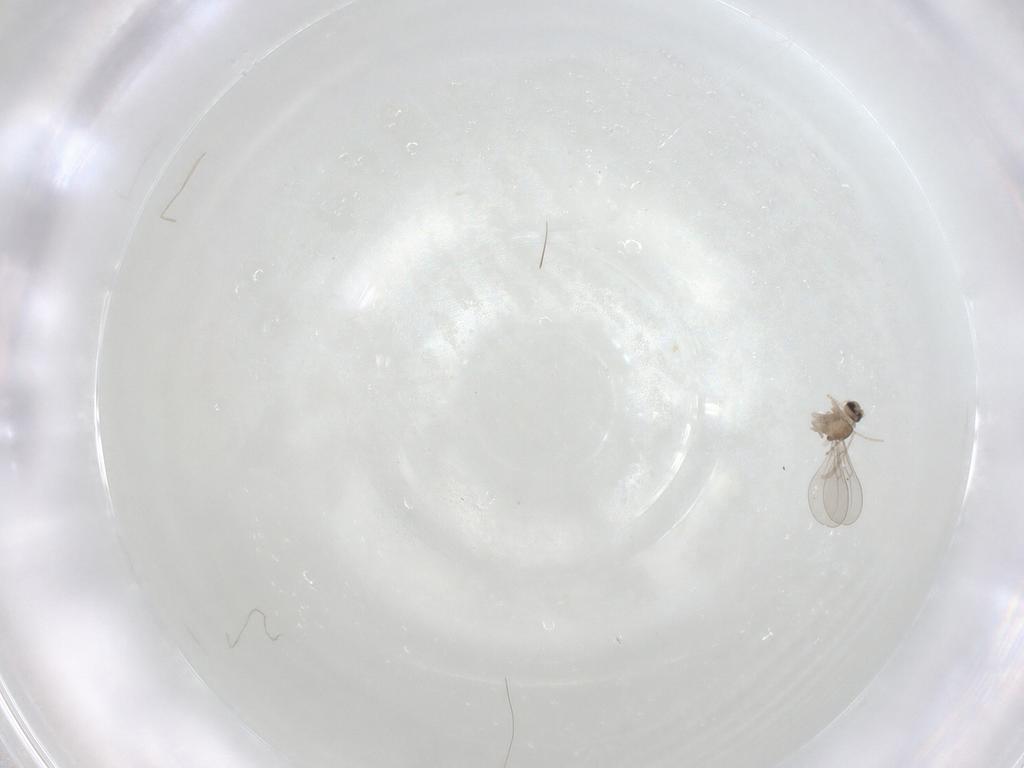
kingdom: Animalia
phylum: Arthropoda
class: Insecta
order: Diptera
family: Cecidomyiidae
